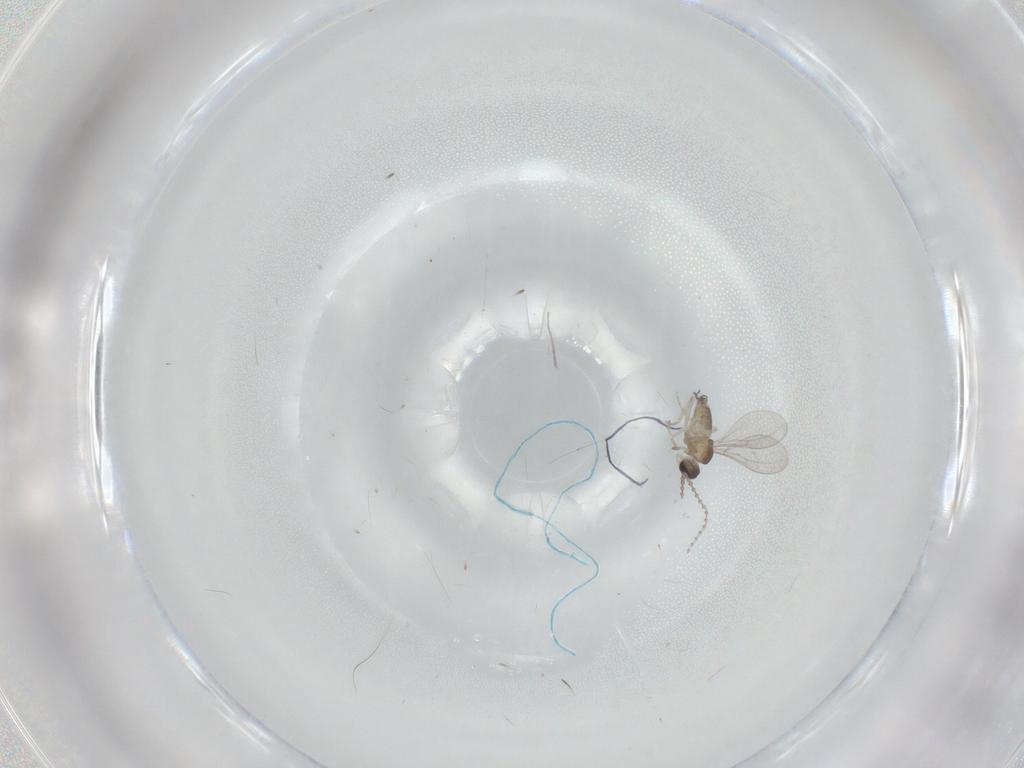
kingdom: Animalia
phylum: Arthropoda
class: Insecta
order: Diptera
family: Cecidomyiidae
